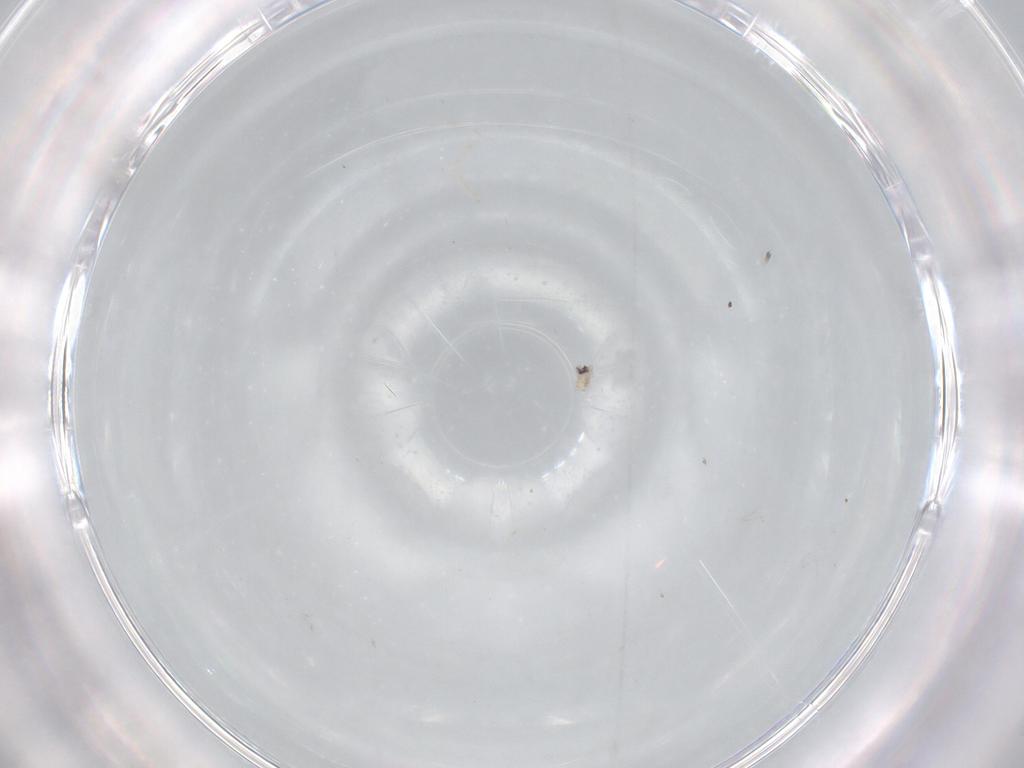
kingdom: Animalia
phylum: Arthropoda
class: Insecta
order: Diptera
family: Cecidomyiidae
